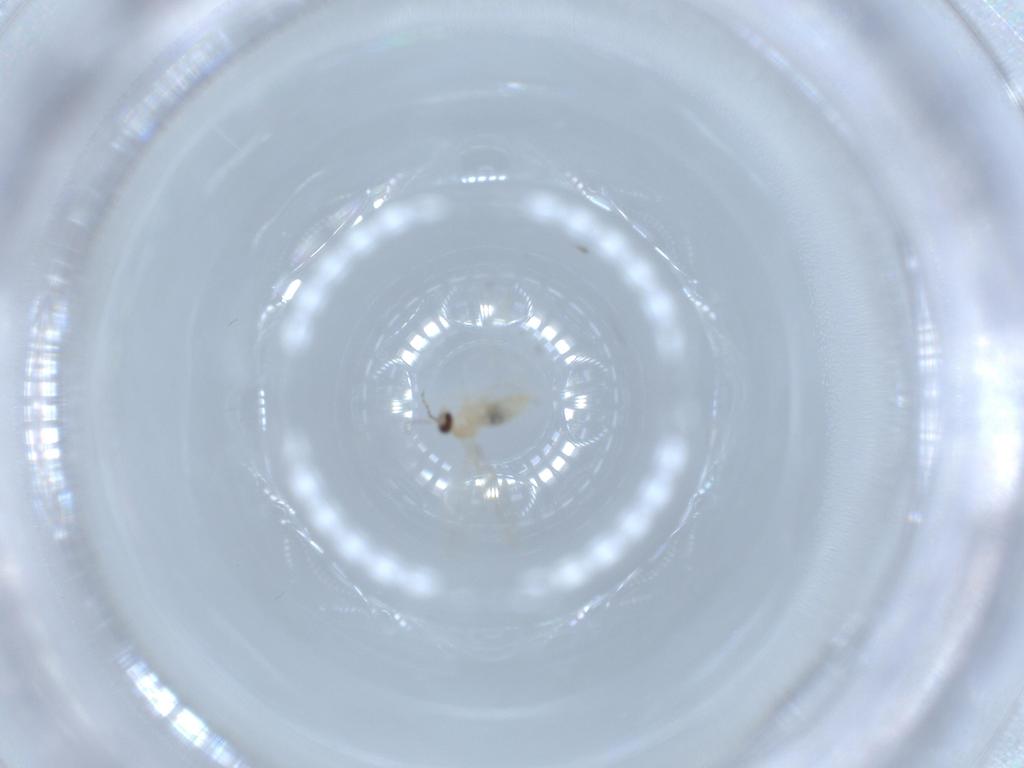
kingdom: Animalia
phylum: Arthropoda
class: Insecta
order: Diptera
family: Cecidomyiidae
